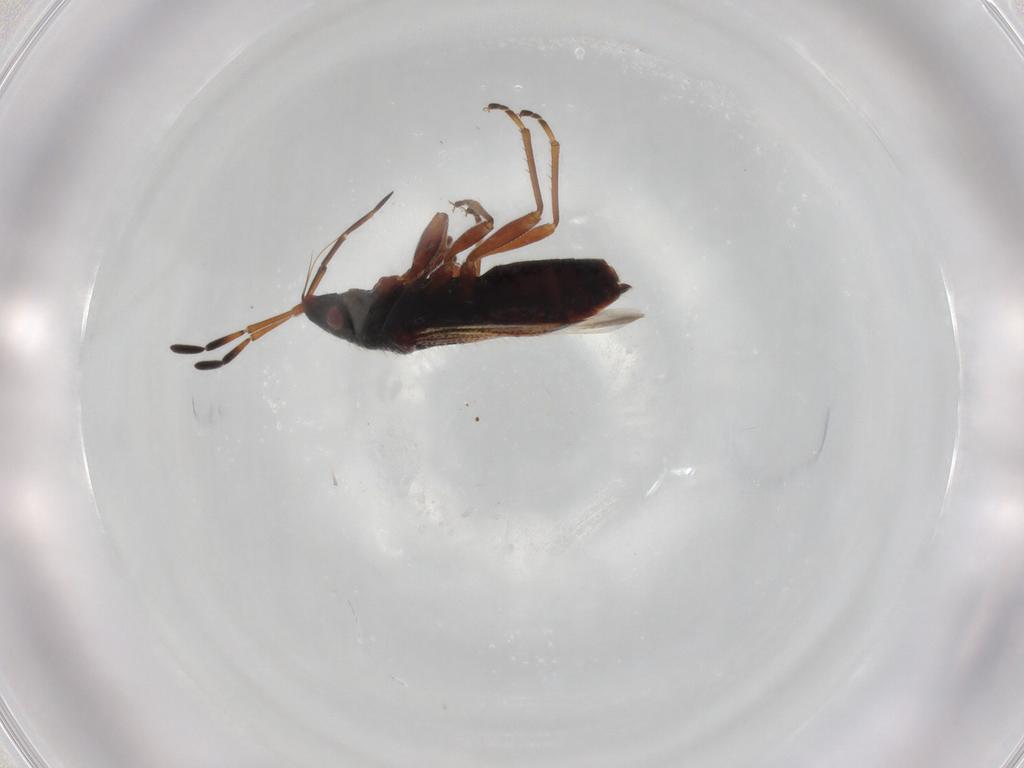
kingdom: Animalia
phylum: Arthropoda
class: Insecta
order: Hemiptera
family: Rhyparochromidae
